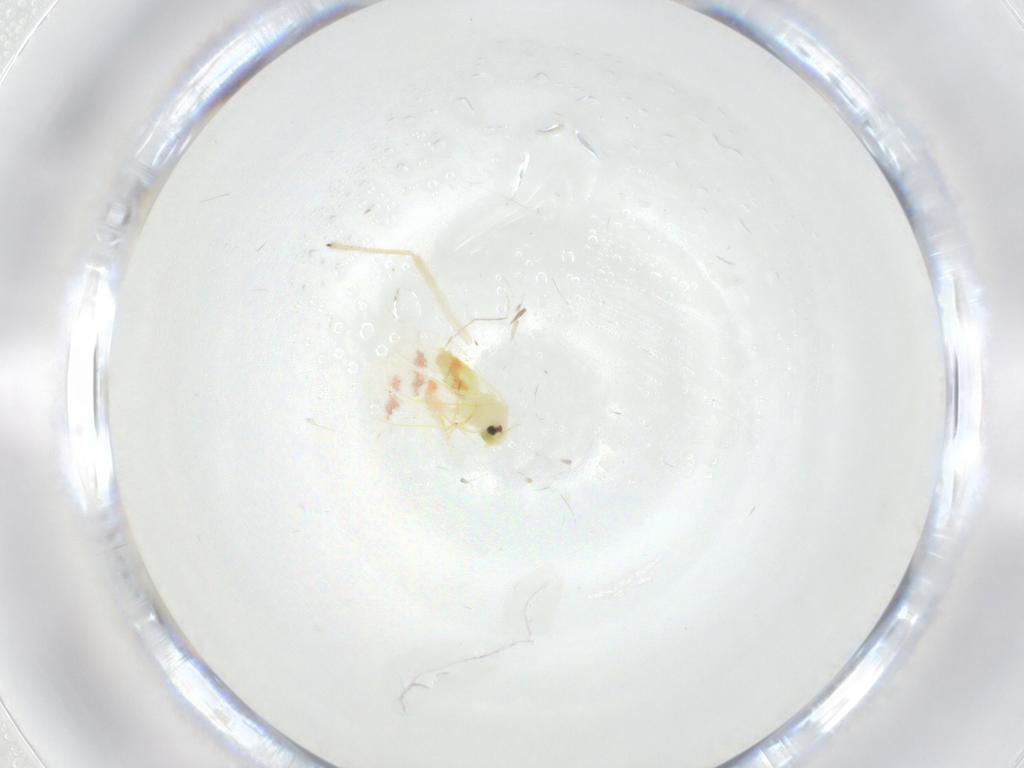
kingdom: Animalia
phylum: Arthropoda
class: Insecta
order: Hemiptera
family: Aleyrodidae
